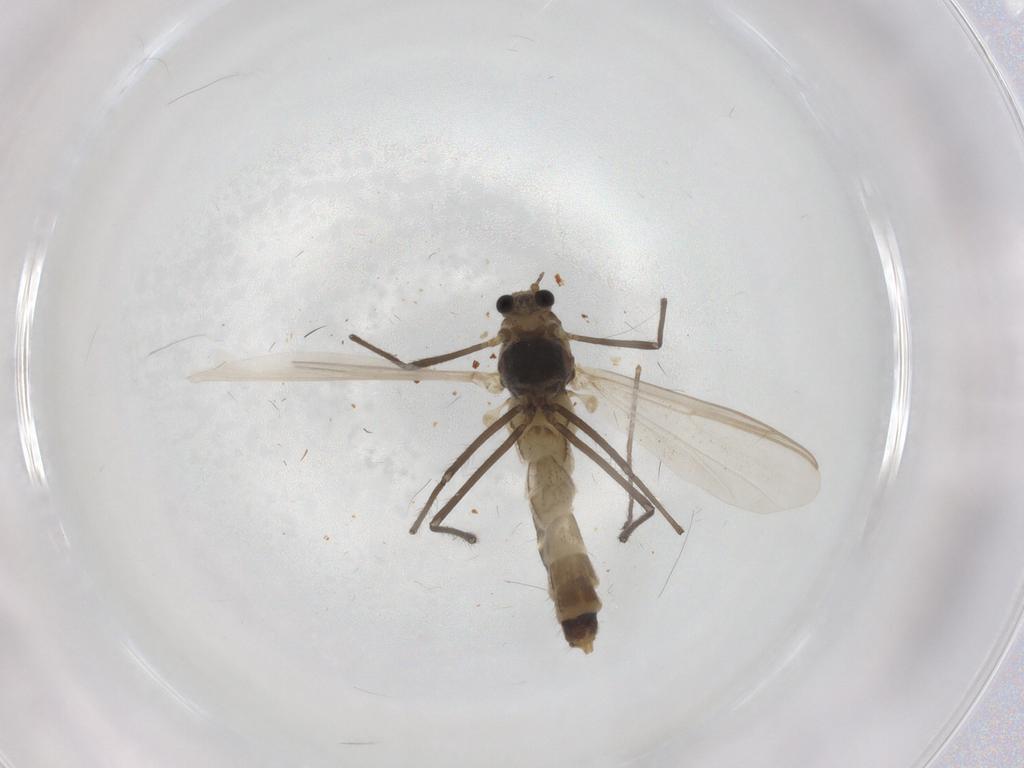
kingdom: Animalia
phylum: Arthropoda
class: Insecta
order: Diptera
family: Chironomidae
